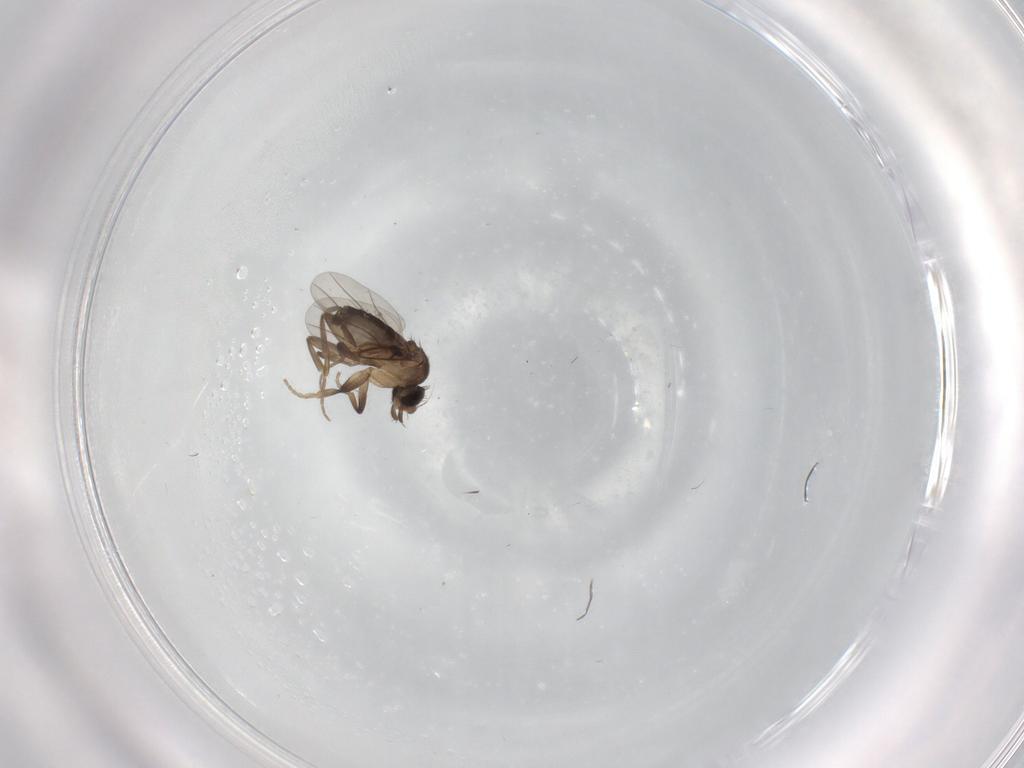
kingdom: Animalia
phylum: Arthropoda
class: Insecta
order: Diptera
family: Phoridae
